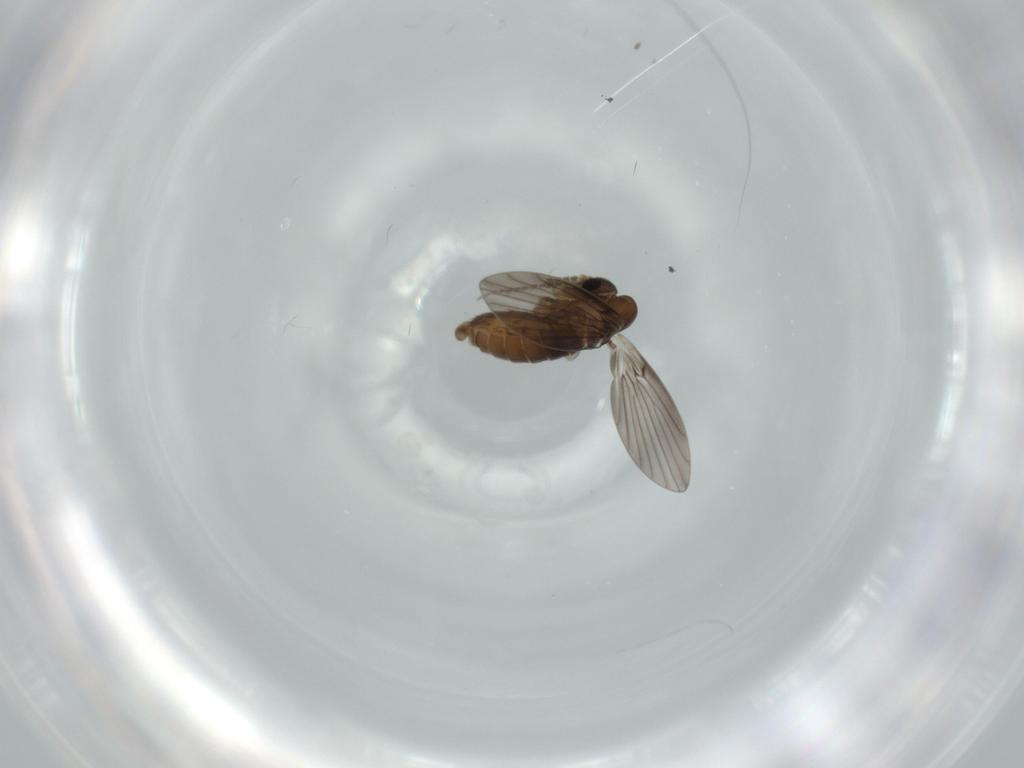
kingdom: Animalia
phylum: Arthropoda
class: Insecta
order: Diptera
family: Psychodidae
